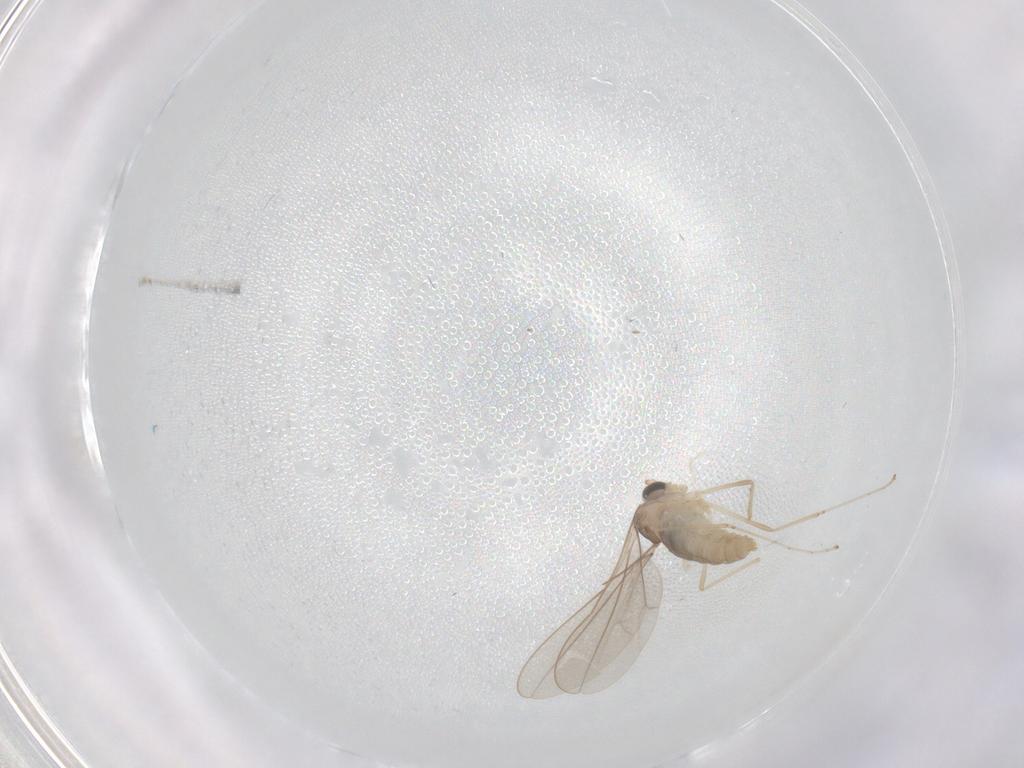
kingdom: Animalia
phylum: Arthropoda
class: Insecta
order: Diptera
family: Cecidomyiidae
